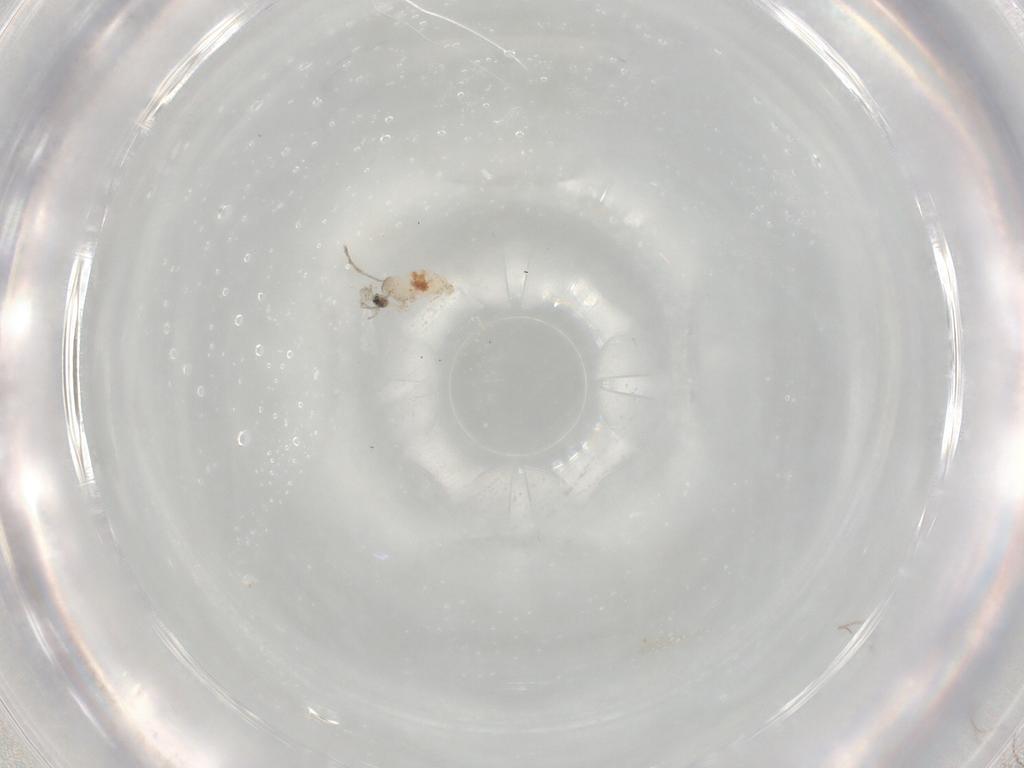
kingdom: Animalia
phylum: Arthropoda
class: Insecta
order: Diptera
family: Cecidomyiidae
